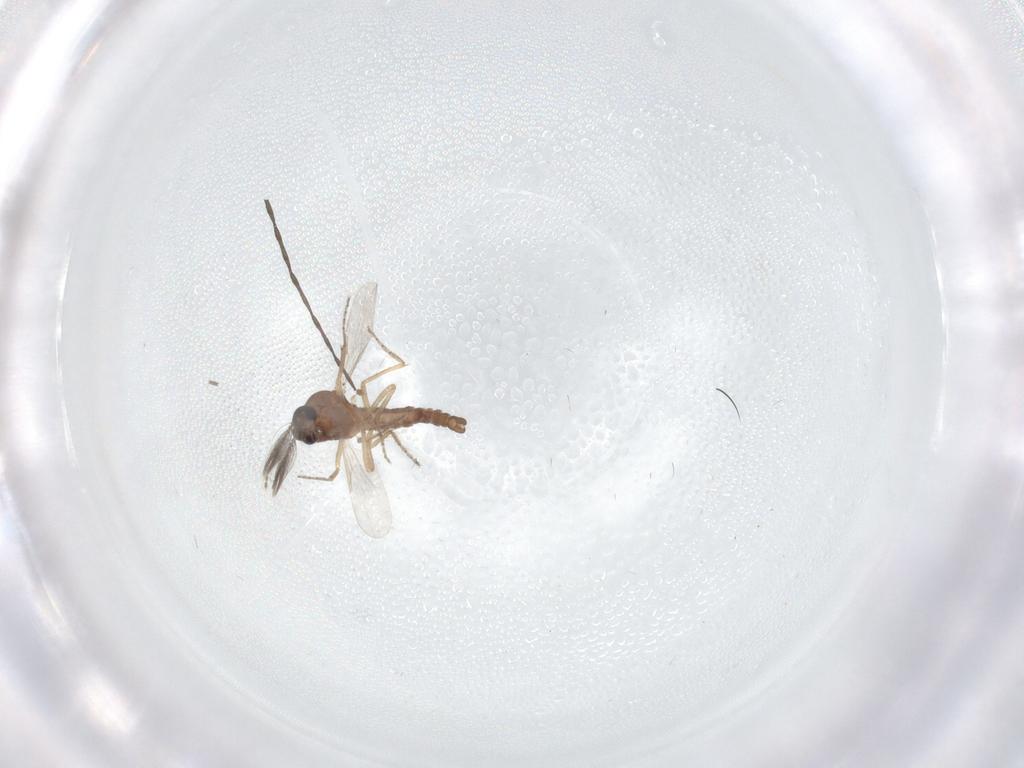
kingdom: Animalia
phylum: Arthropoda
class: Insecta
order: Diptera
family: Ceratopogonidae
